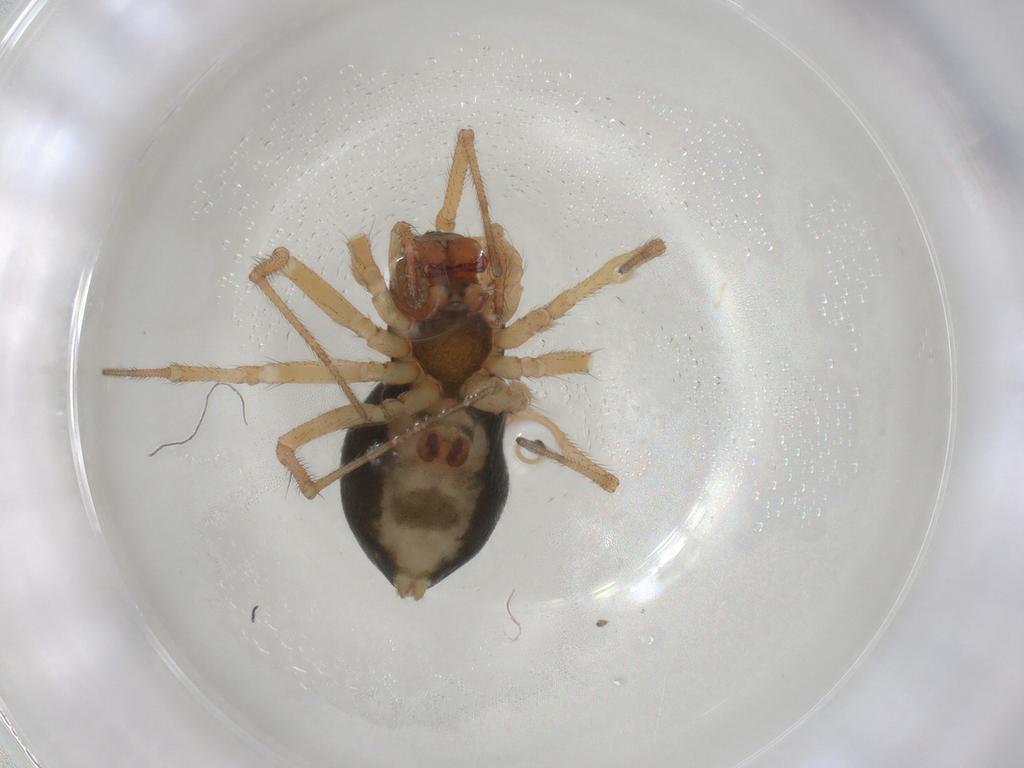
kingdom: Animalia
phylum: Arthropoda
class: Arachnida
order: Araneae
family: Linyphiidae
